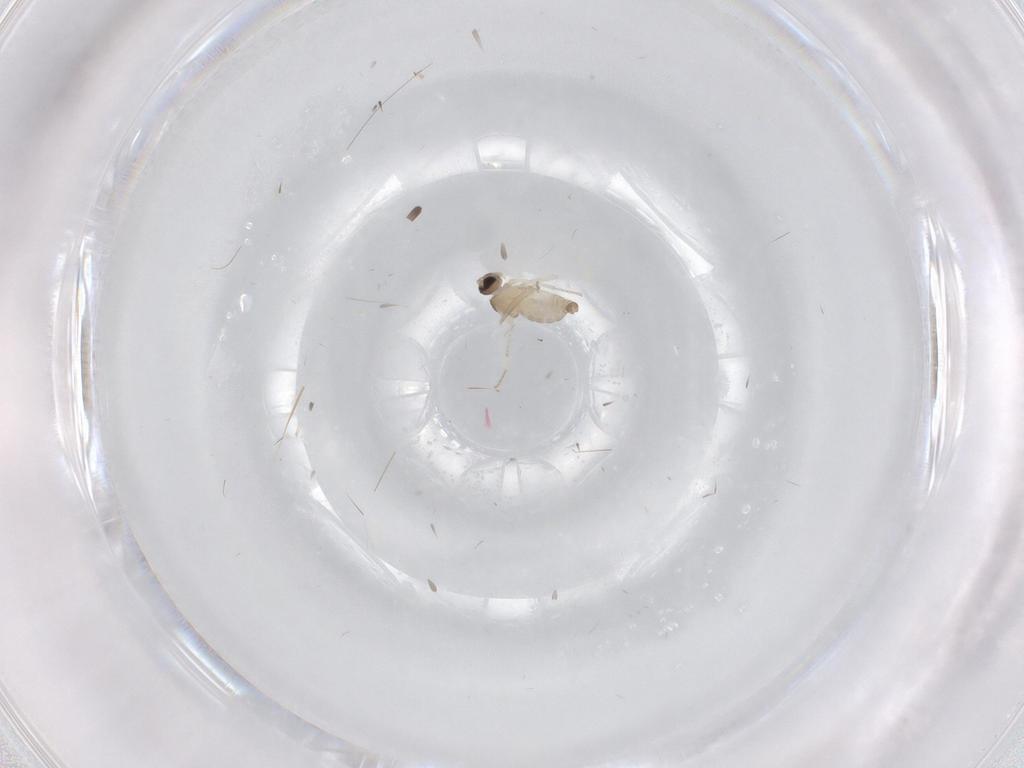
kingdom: Animalia
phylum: Arthropoda
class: Insecta
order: Diptera
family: Cecidomyiidae
